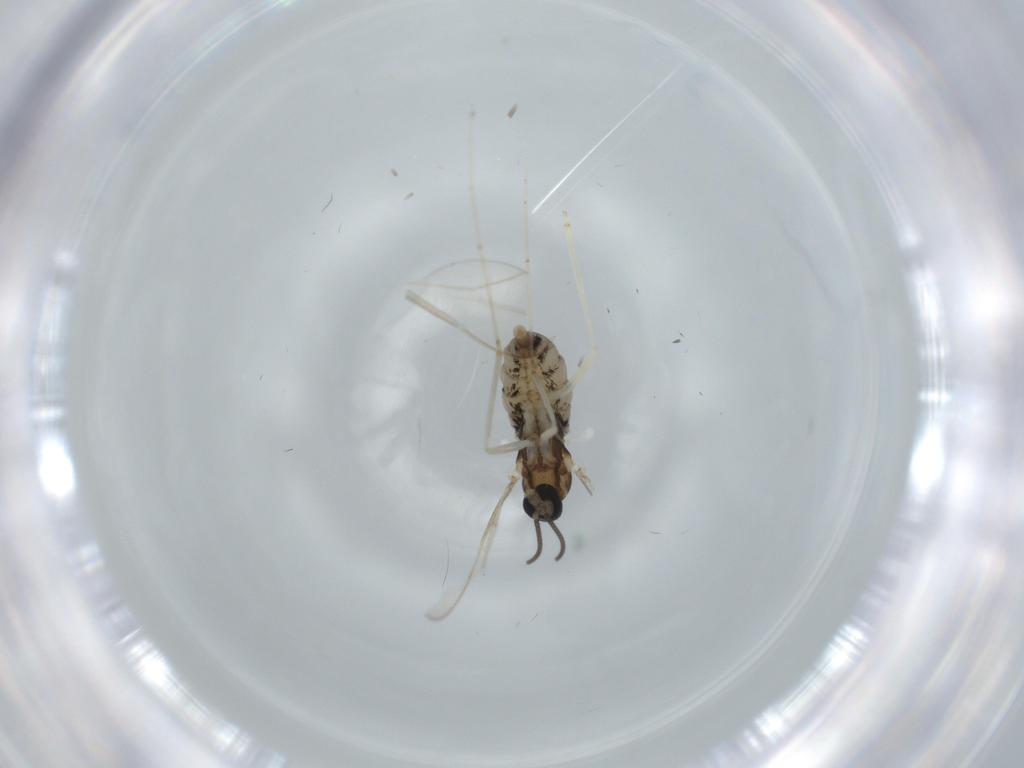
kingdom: Animalia
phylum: Arthropoda
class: Insecta
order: Diptera
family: Cecidomyiidae
